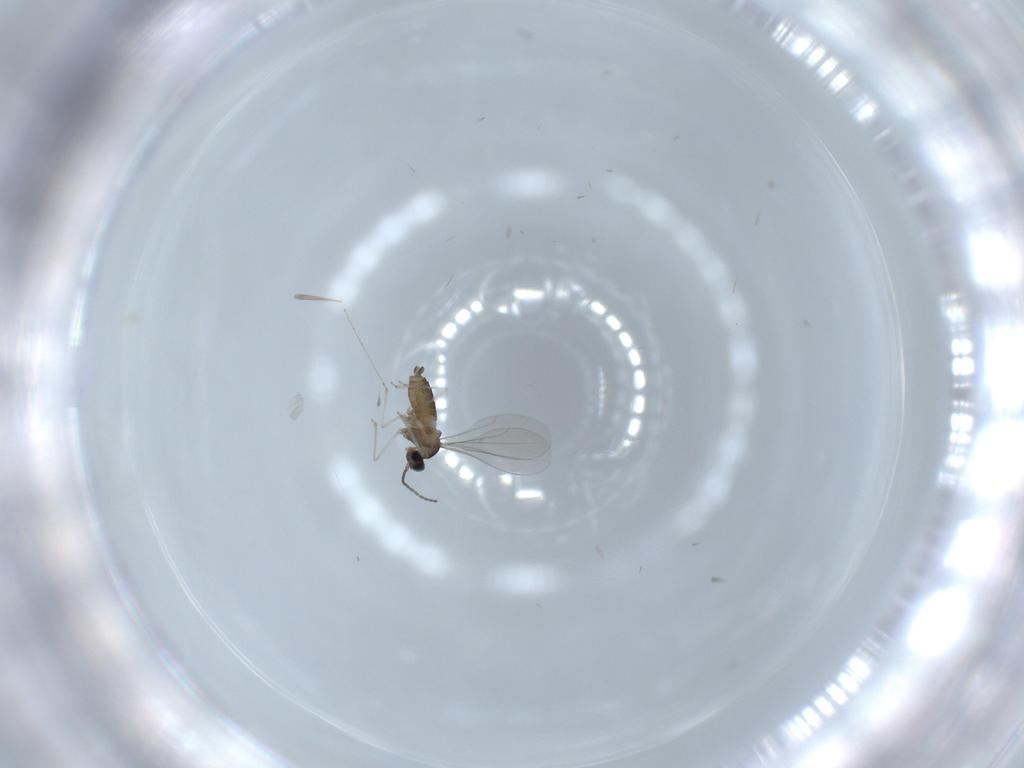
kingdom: Animalia
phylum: Arthropoda
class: Insecta
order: Diptera
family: Limoniidae
